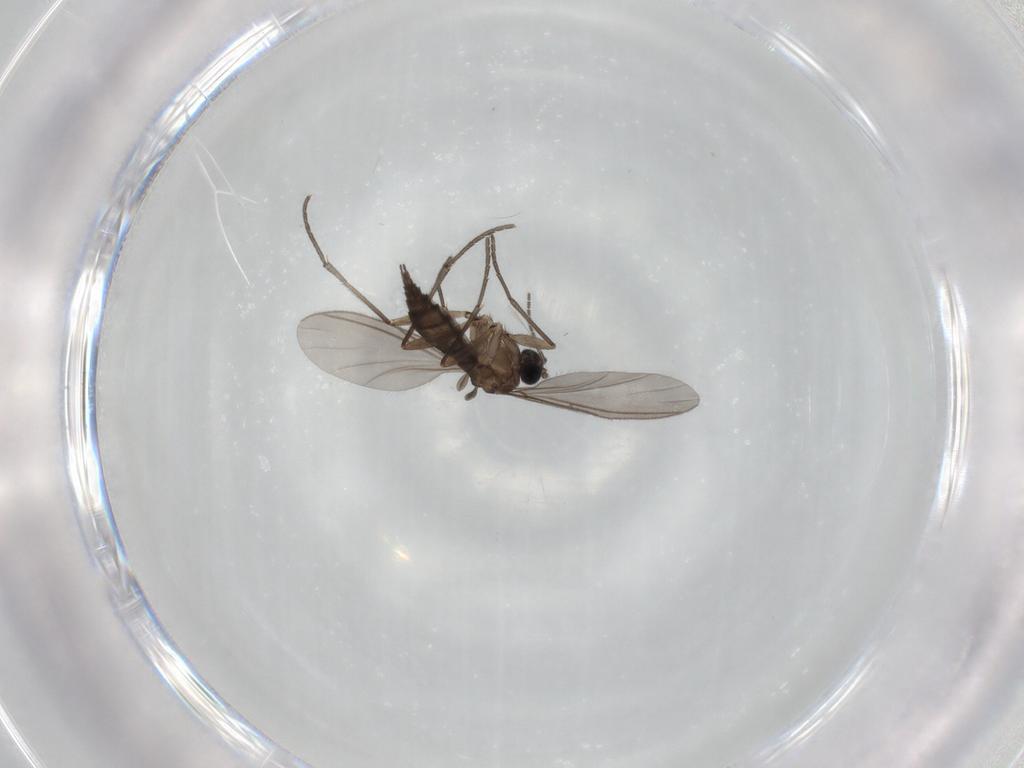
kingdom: Animalia
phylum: Arthropoda
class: Insecta
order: Diptera
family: Sciaridae
